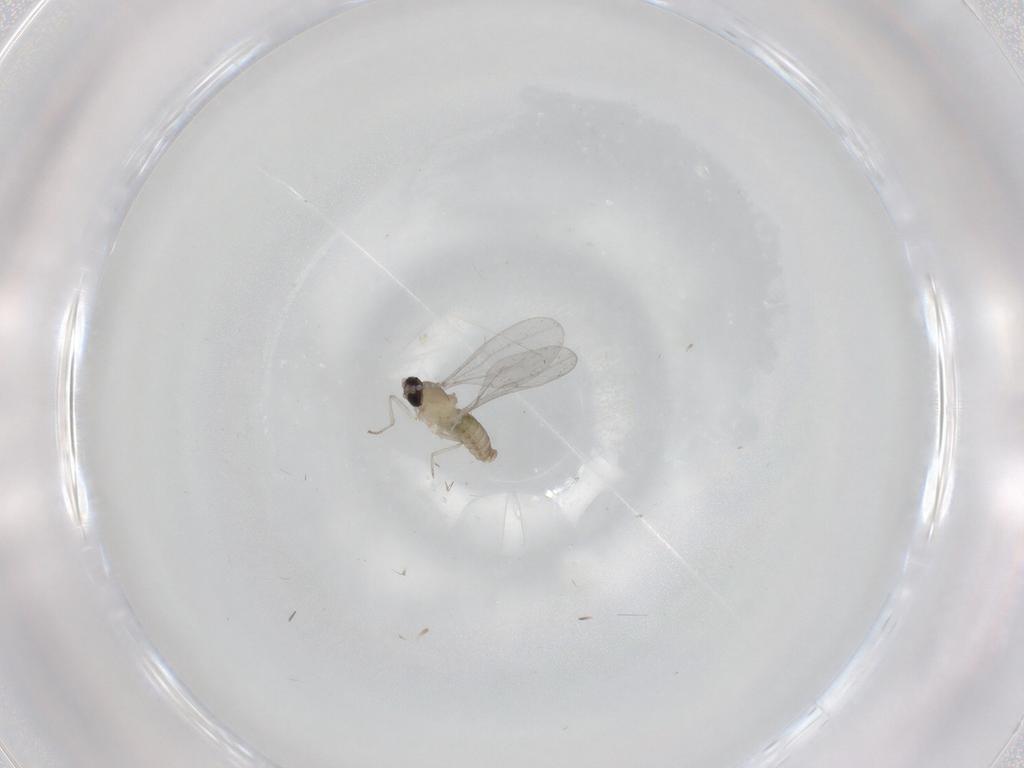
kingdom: Animalia
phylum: Arthropoda
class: Insecta
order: Diptera
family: Cecidomyiidae
